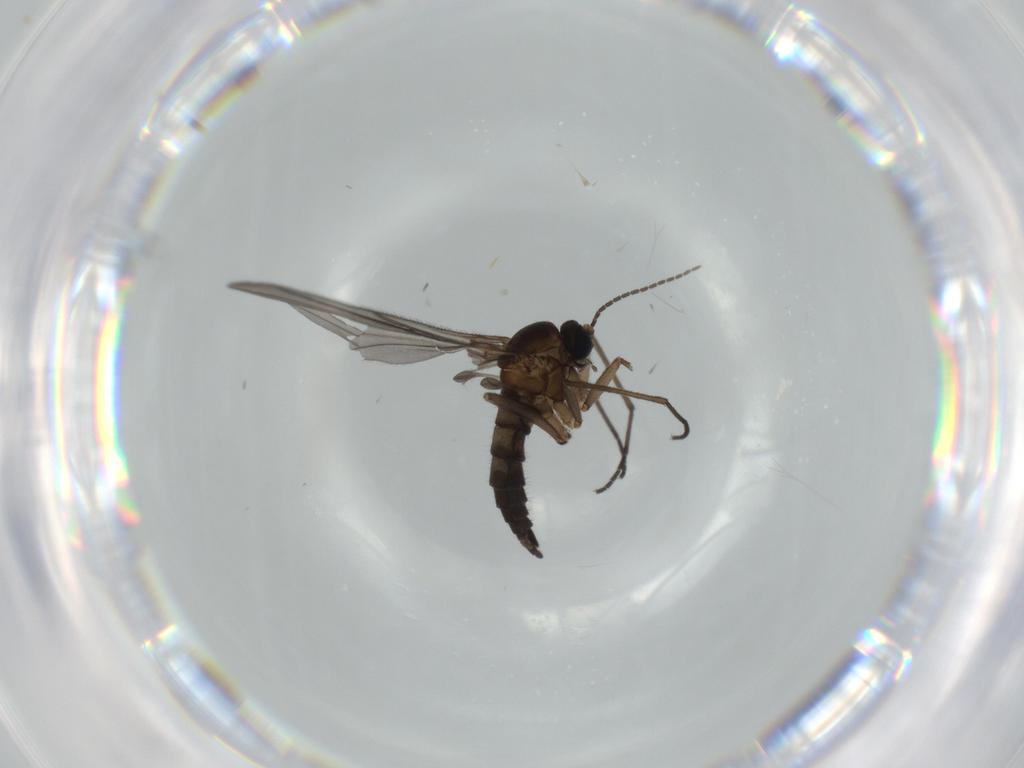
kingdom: Animalia
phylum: Arthropoda
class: Insecta
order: Diptera
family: Sciaridae
